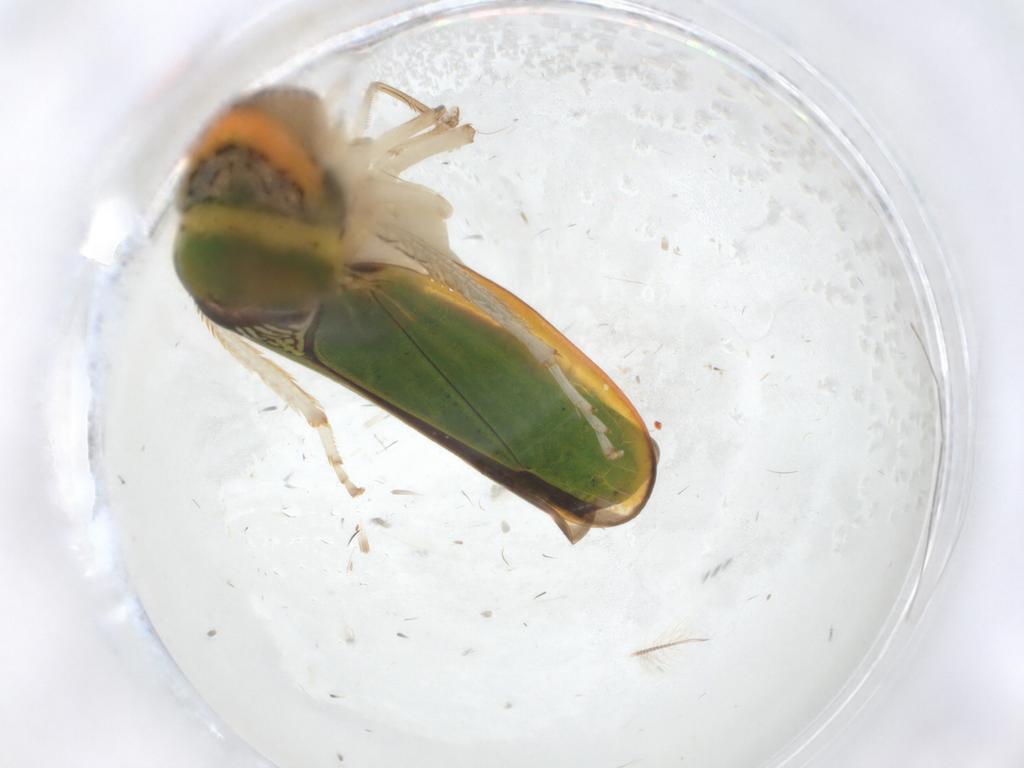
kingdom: Animalia
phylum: Arthropoda
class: Insecta
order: Hemiptera
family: Cicadellidae
